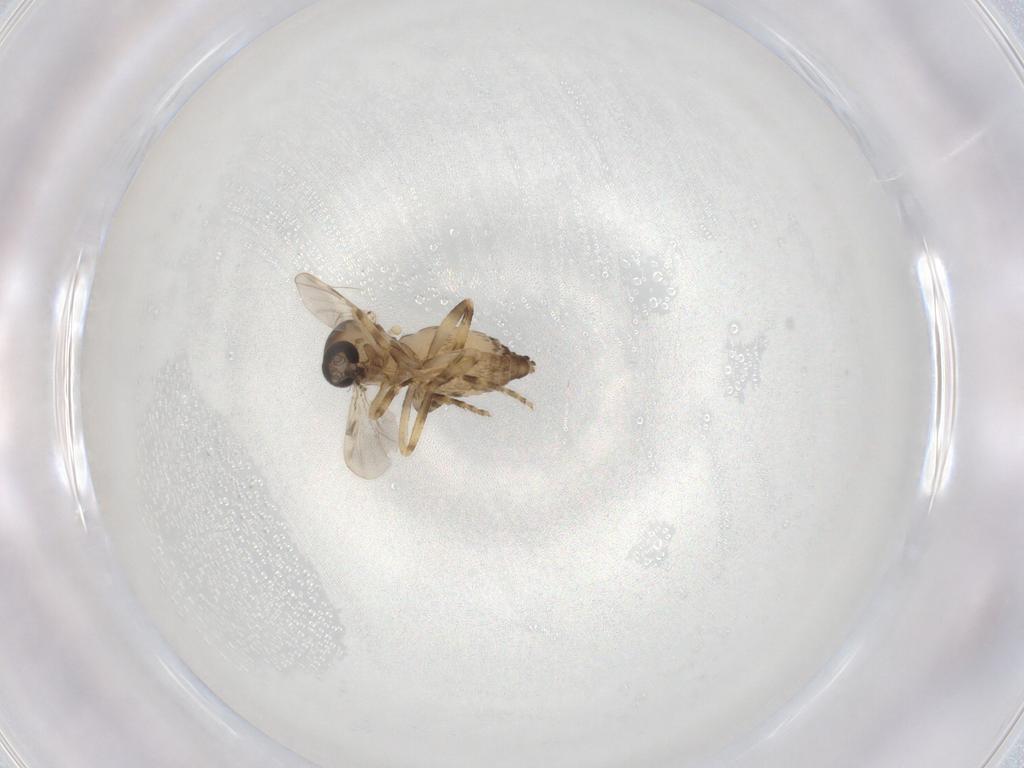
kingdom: Animalia
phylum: Arthropoda
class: Insecta
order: Diptera
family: Ceratopogonidae
